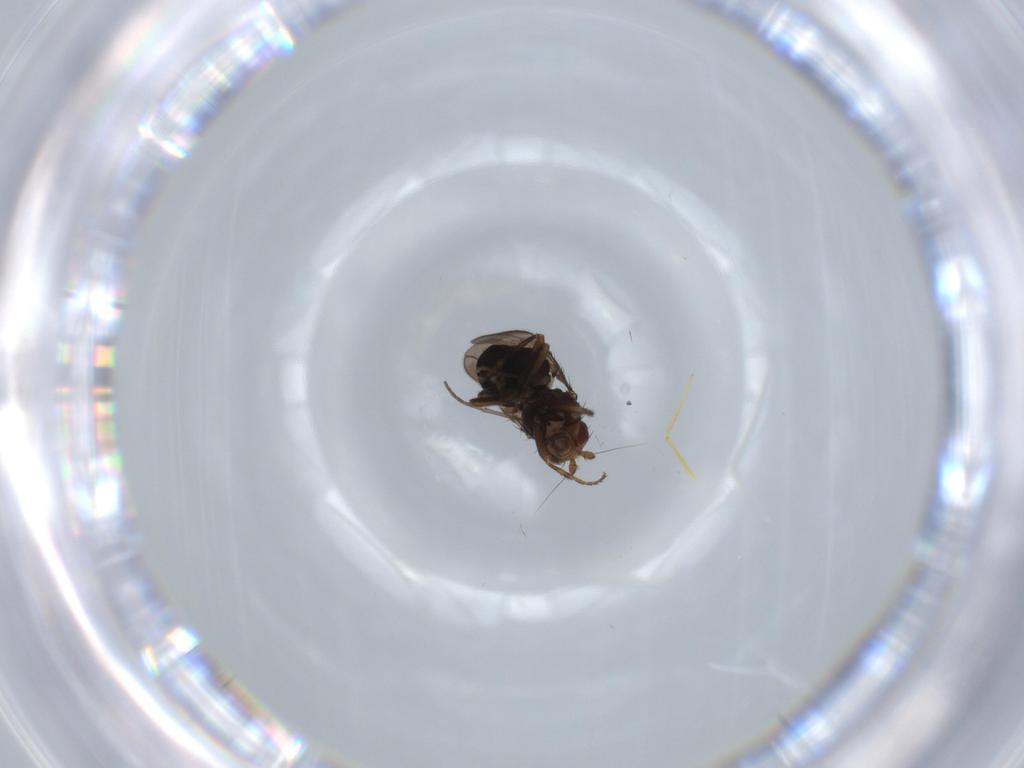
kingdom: Animalia
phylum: Arthropoda
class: Insecta
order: Diptera
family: Sphaeroceridae
